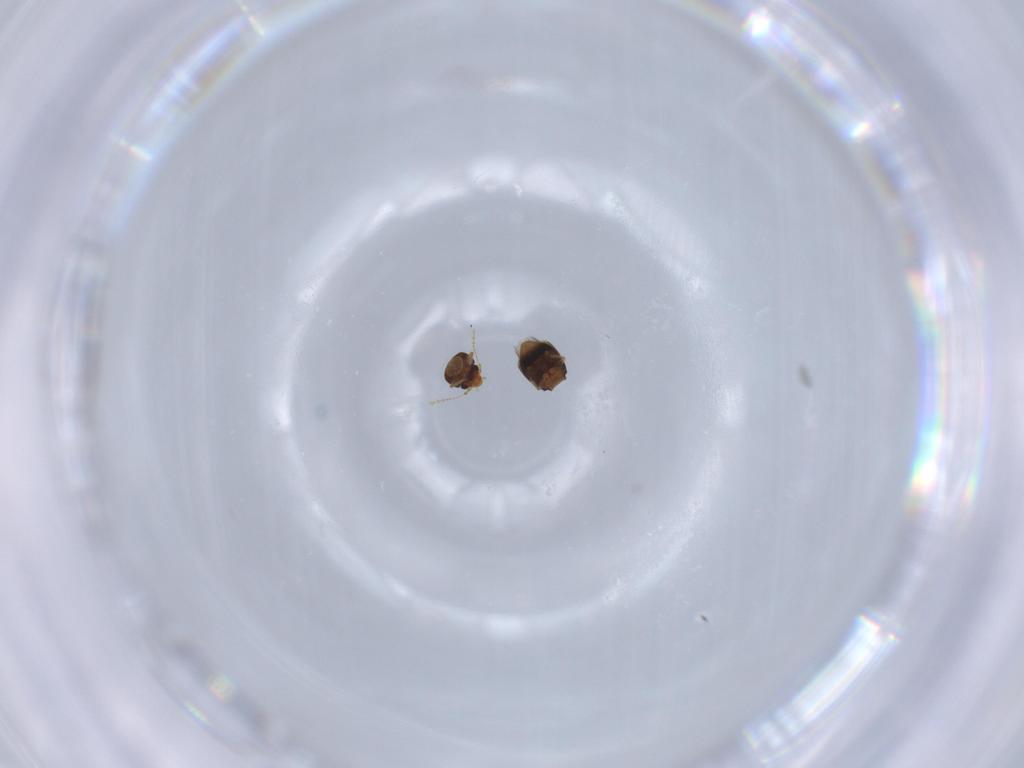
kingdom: Animalia
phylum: Arthropoda
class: Insecta
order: Coleoptera
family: Ptiliidae
